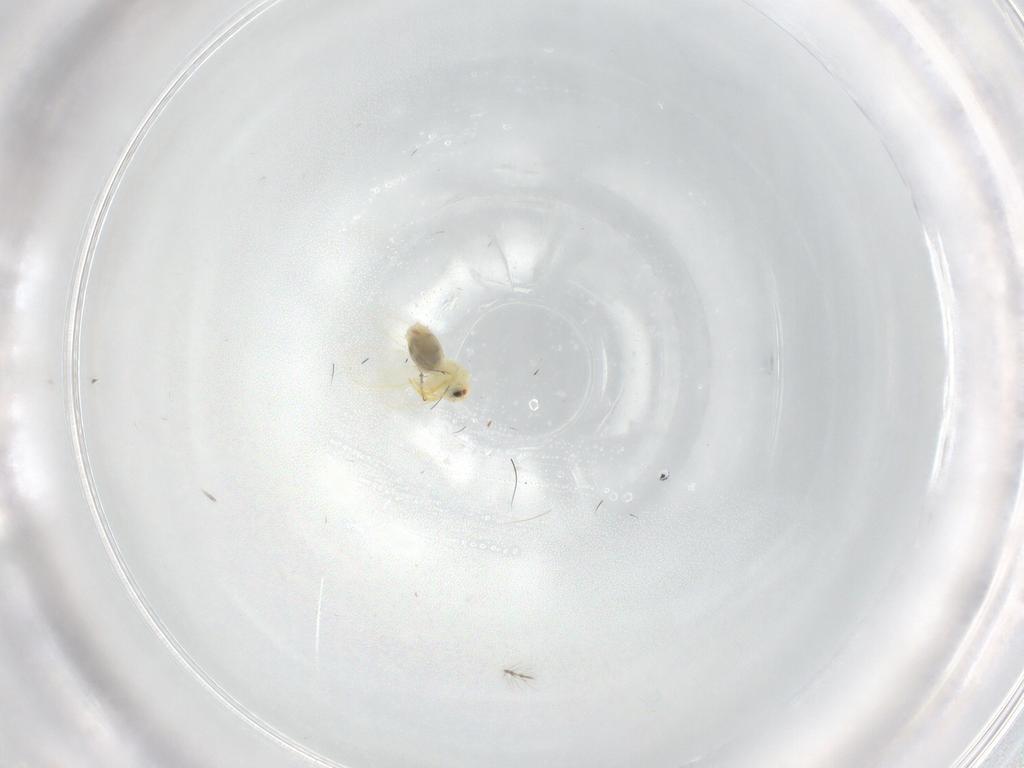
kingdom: Animalia
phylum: Arthropoda
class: Insecta
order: Hemiptera
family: Aleyrodidae
